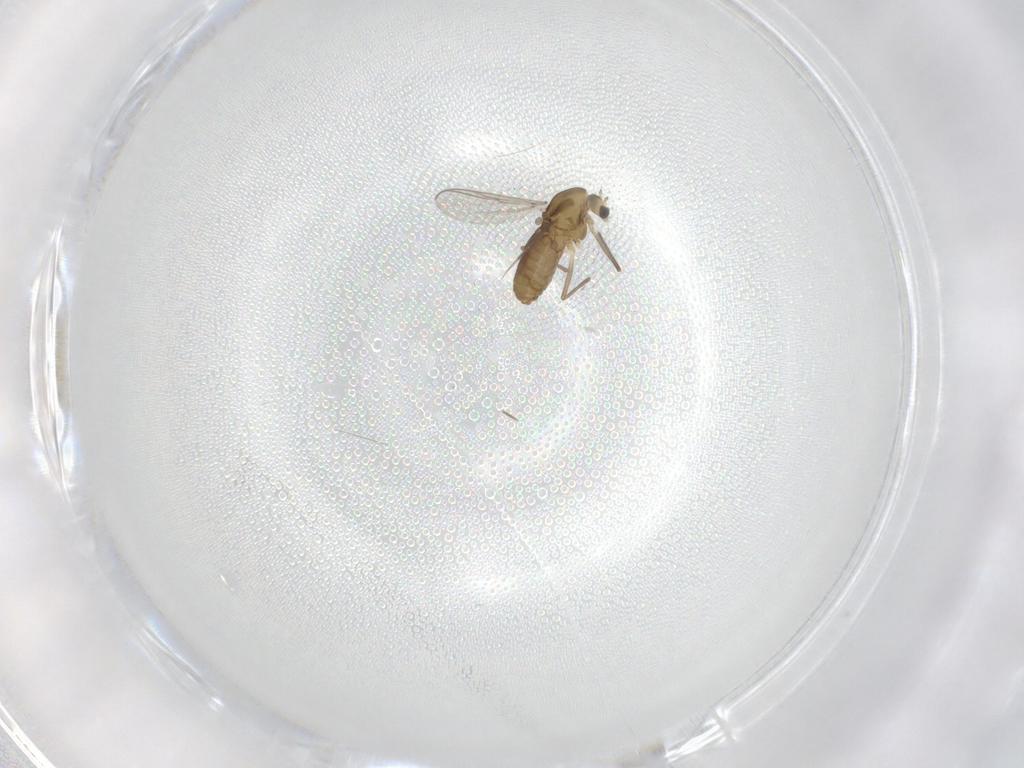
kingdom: Animalia
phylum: Arthropoda
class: Insecta
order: Diptera
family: Chironomidae
